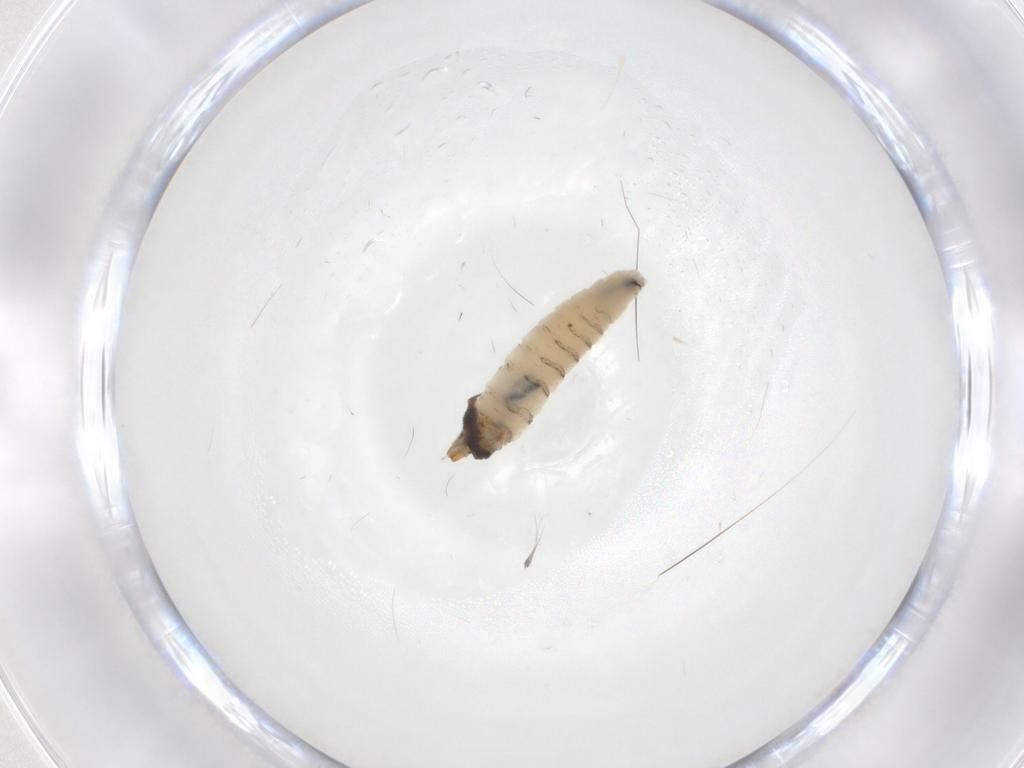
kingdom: Animalia
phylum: Arthropoda
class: Insecta
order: Diptera
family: Drosophilidae
